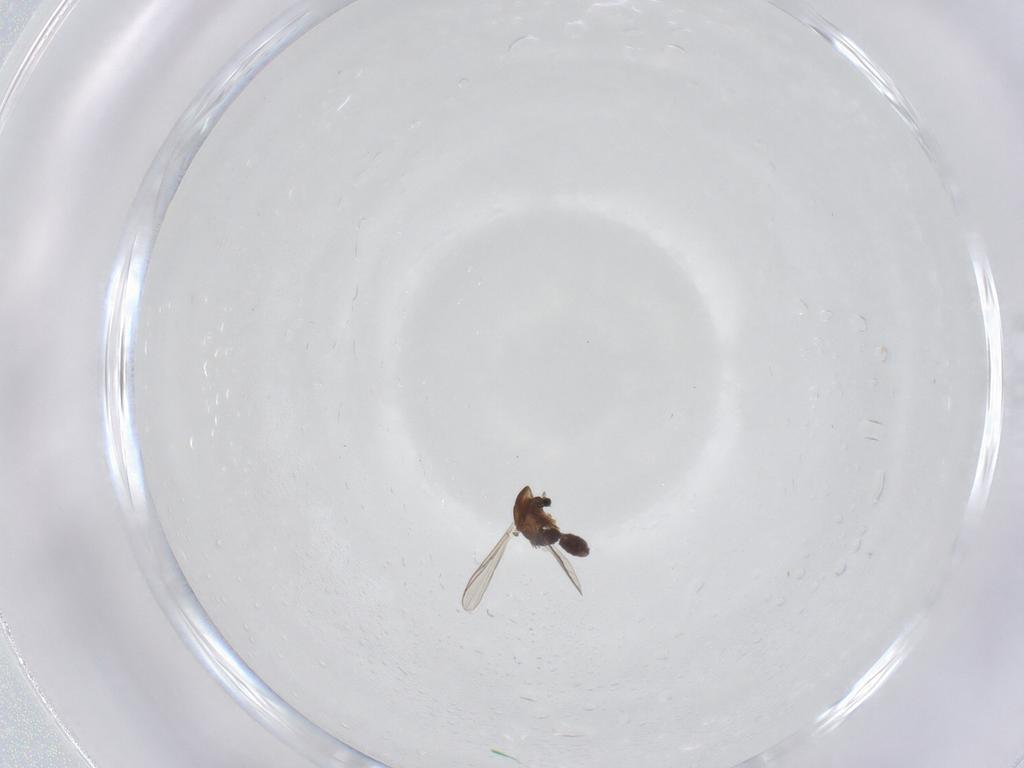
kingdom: Animalia
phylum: Arthropoda
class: Insecta
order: Diptera
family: Chironomidae
